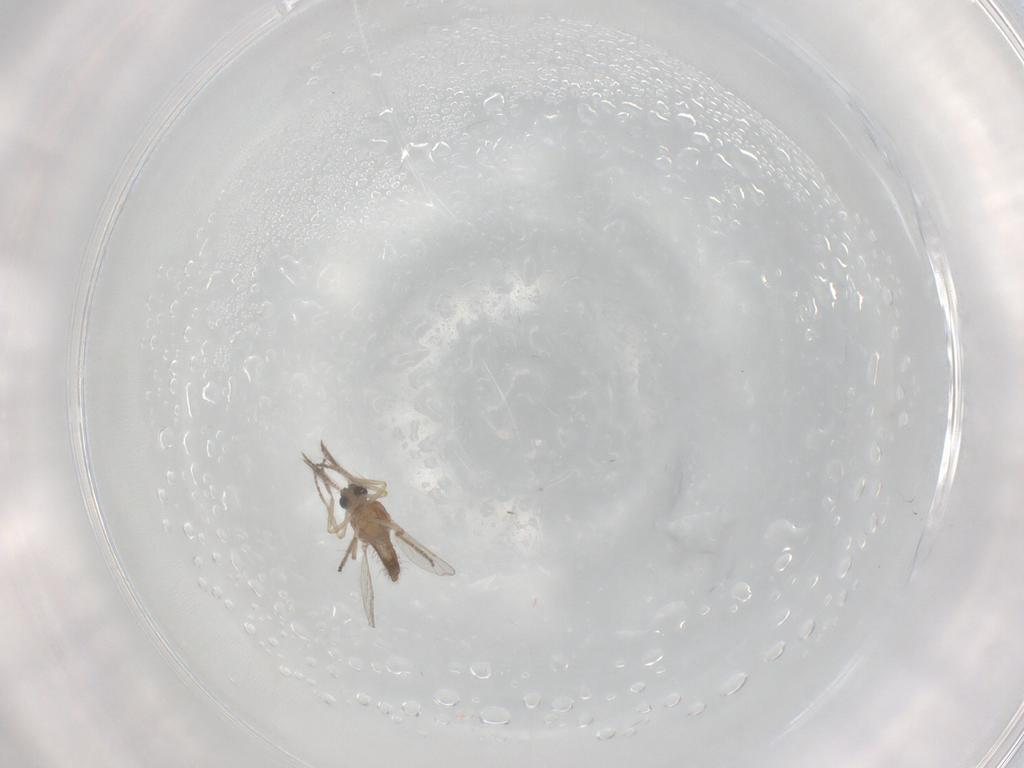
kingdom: Animalia
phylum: Arthropoda
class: Insecta
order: Diptera
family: Ceratopogonidae
